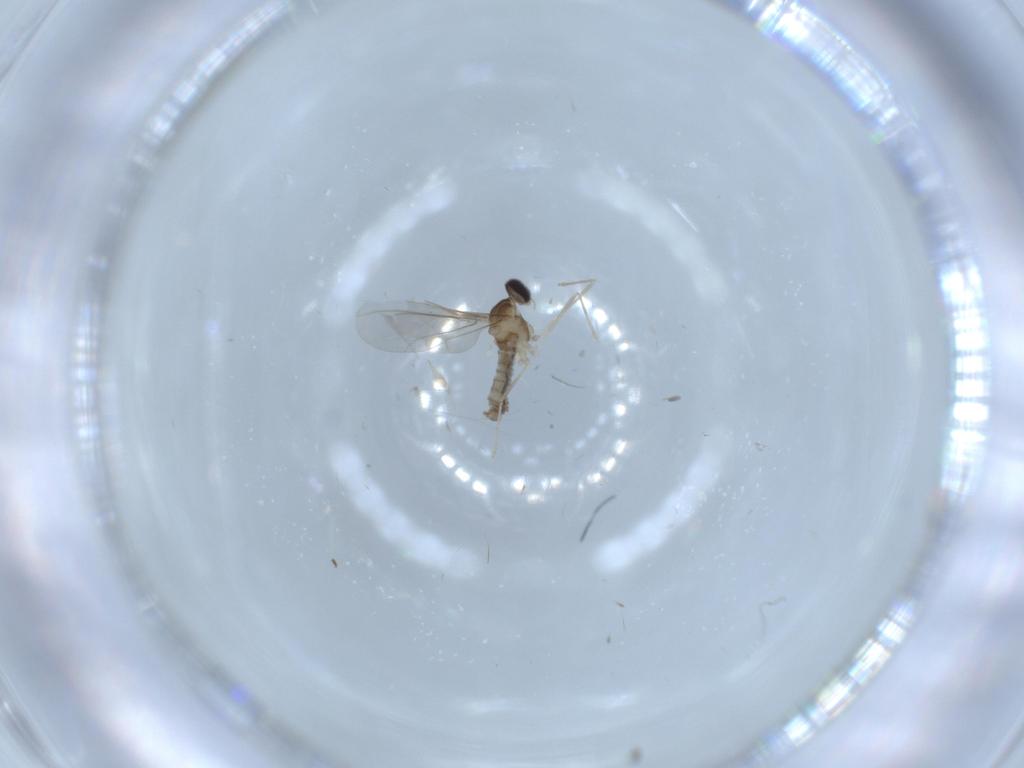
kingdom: Animalia
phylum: Arthropoda
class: Insecta
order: Diptera
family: Cecidomyiidae
